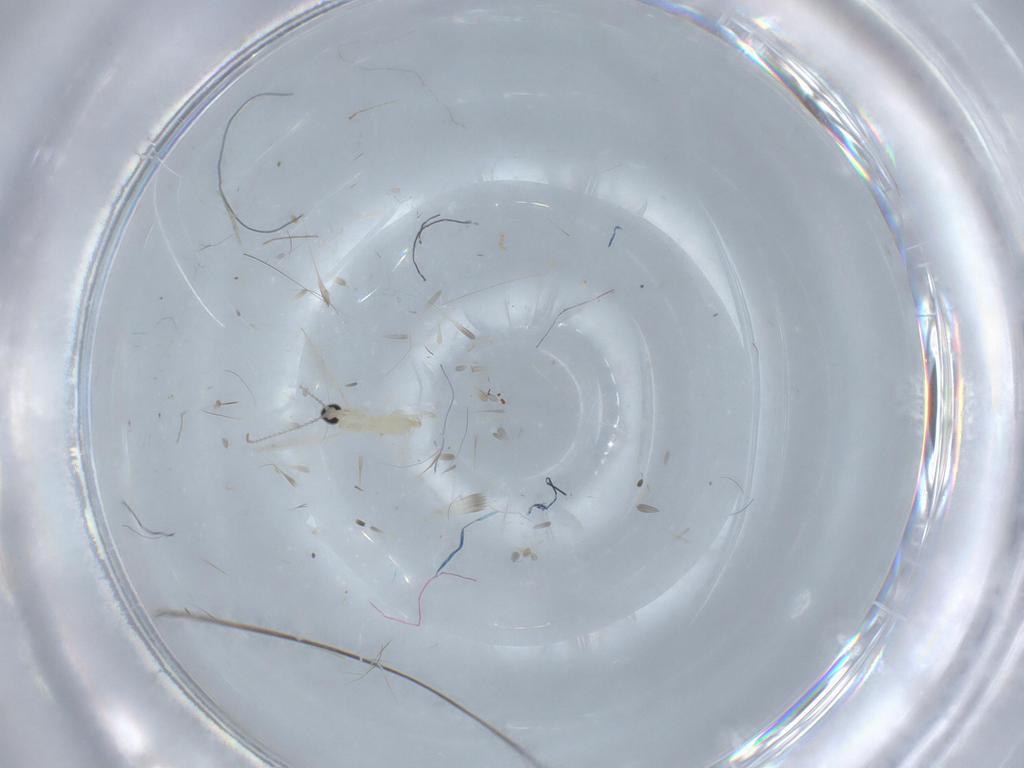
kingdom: Animalia
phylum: Arthropoda
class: Insecta
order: Diptera
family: Cecidomyiidae
